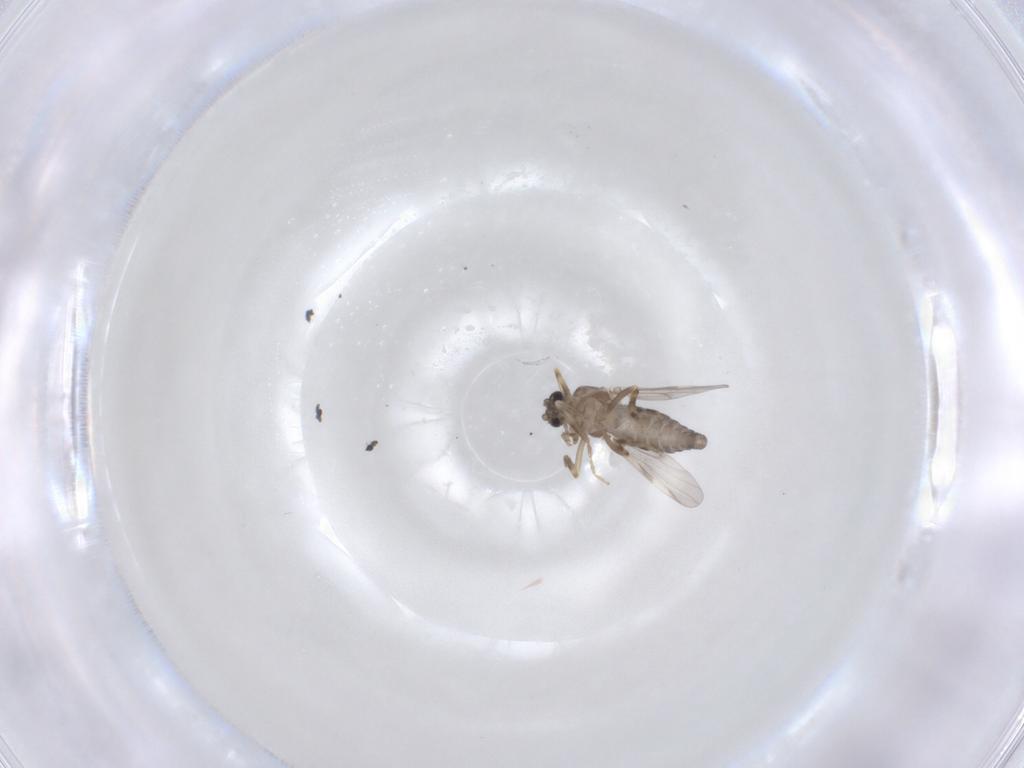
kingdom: Animalia
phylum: Arthropoda
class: Insecta
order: Diptera
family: Ceratopogonidae
